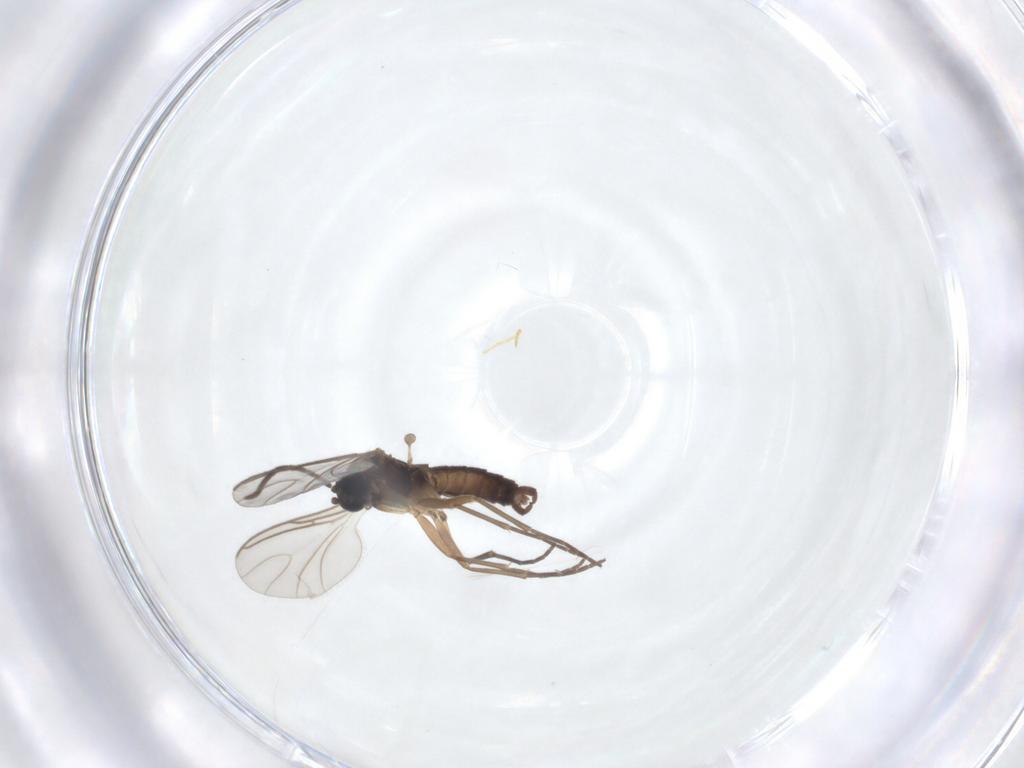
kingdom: Animalia
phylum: Arthropoda
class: Insecta
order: Diptera
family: Sciaridae
